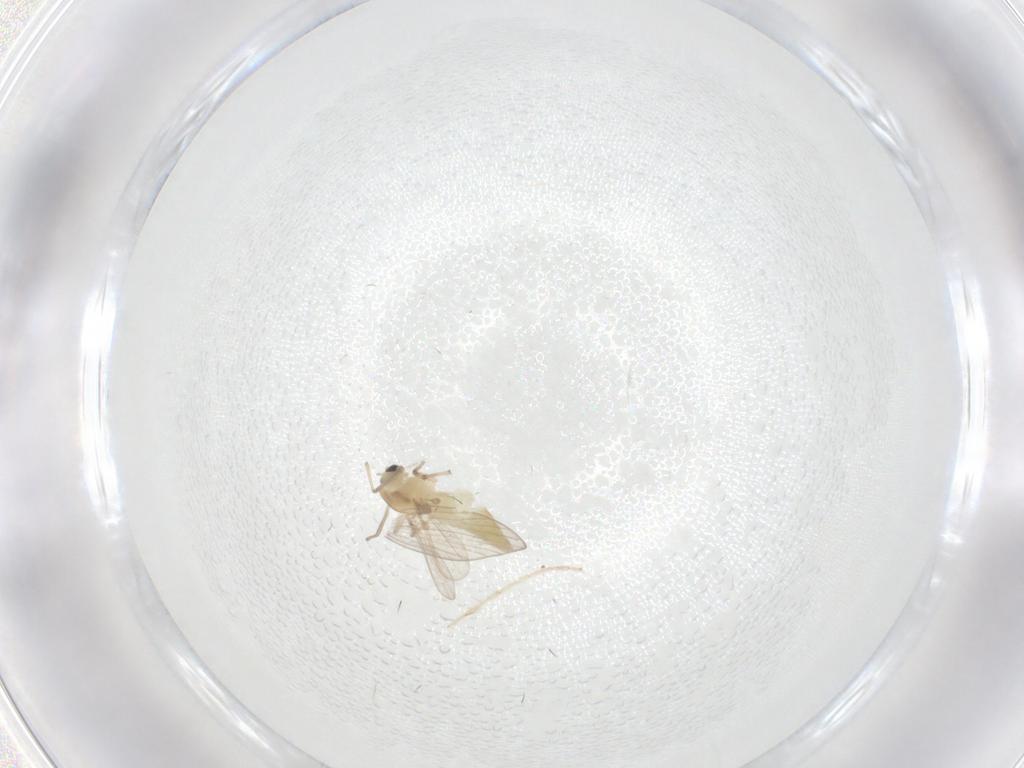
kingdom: Animalia
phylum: Arthropoda
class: Insecta
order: Diptera
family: Chironomidae
